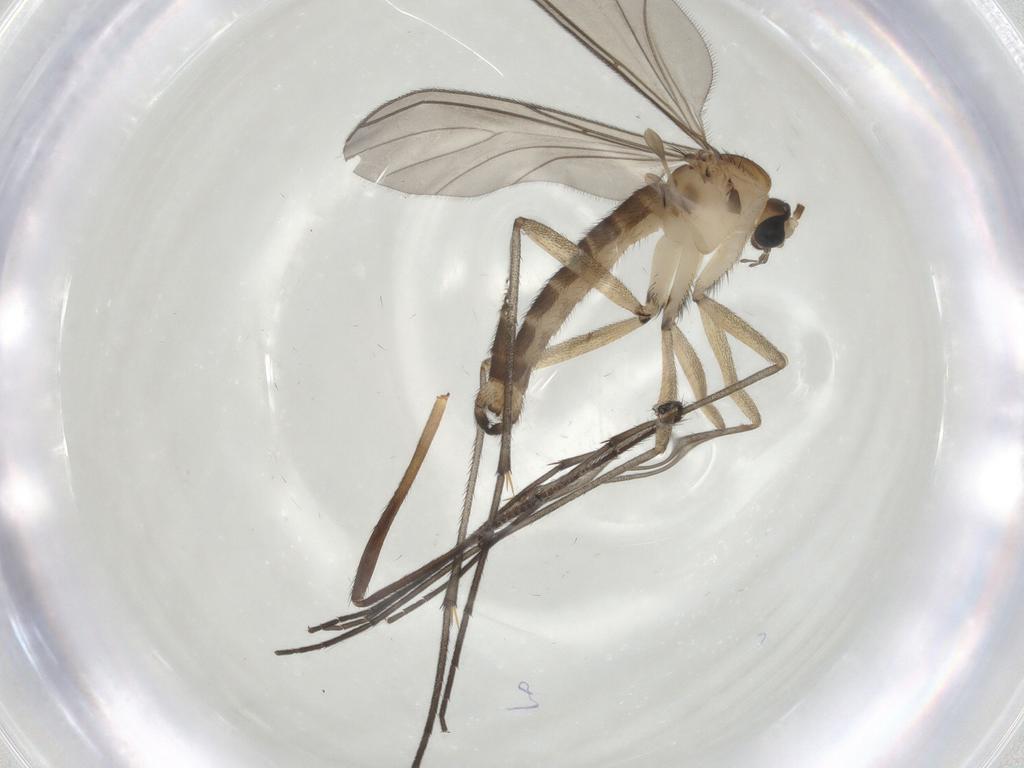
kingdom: Animalia
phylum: Arthropoda
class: Insecta
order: Diptera
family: Sciaridae
